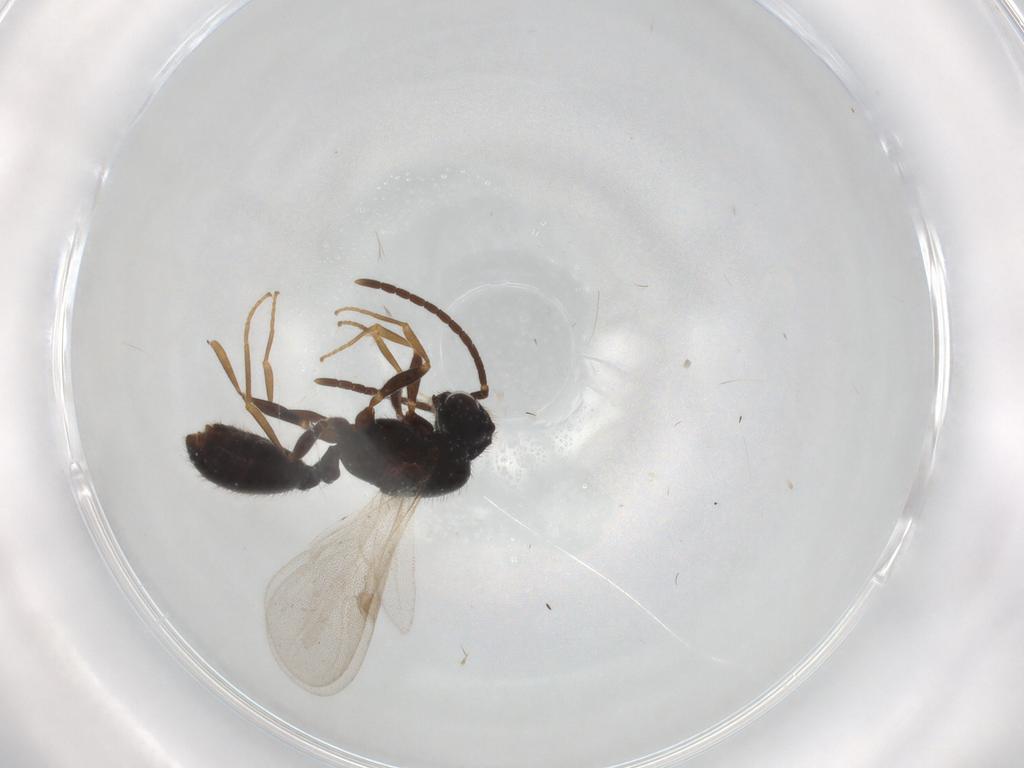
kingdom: Animalia
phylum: Arthropoda
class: Insecta
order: Hymenoptera
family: Formicidae
